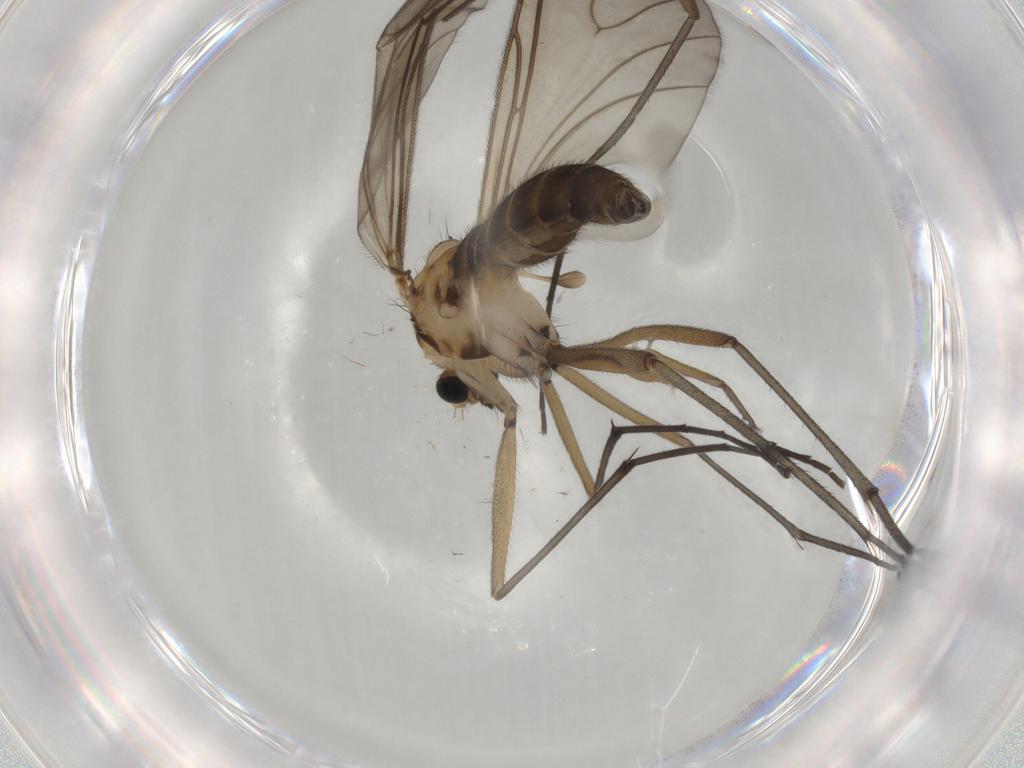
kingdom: Animalia
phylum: Arthropoda
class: Insecta
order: Diptera
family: Sciaridae
